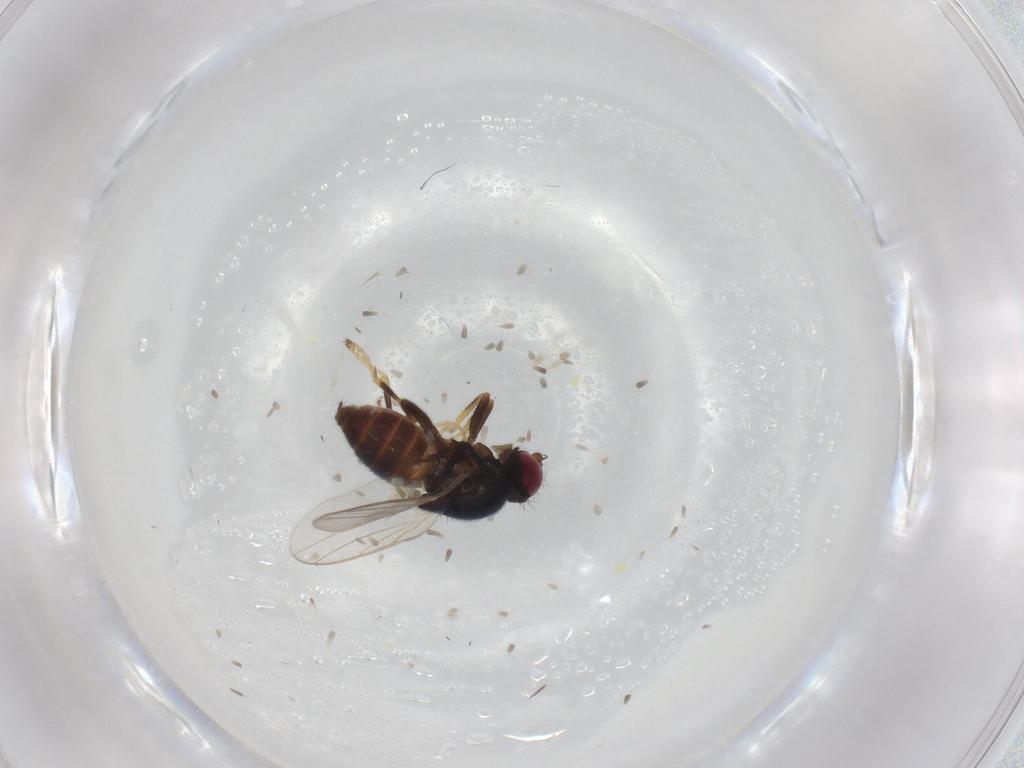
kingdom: Animalia
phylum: Arthropoda
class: Insecta
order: Diptera
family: Chloropidae
